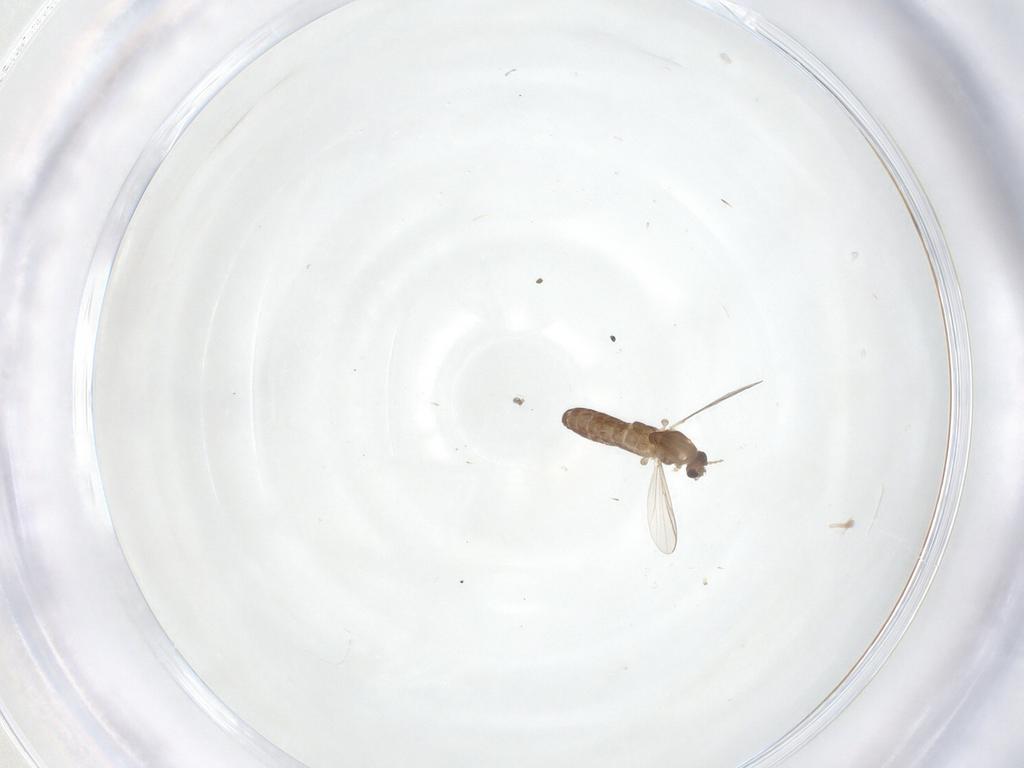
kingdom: Animalia
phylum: Arthropoda
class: Insecta
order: Diptera
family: Chironomidae
